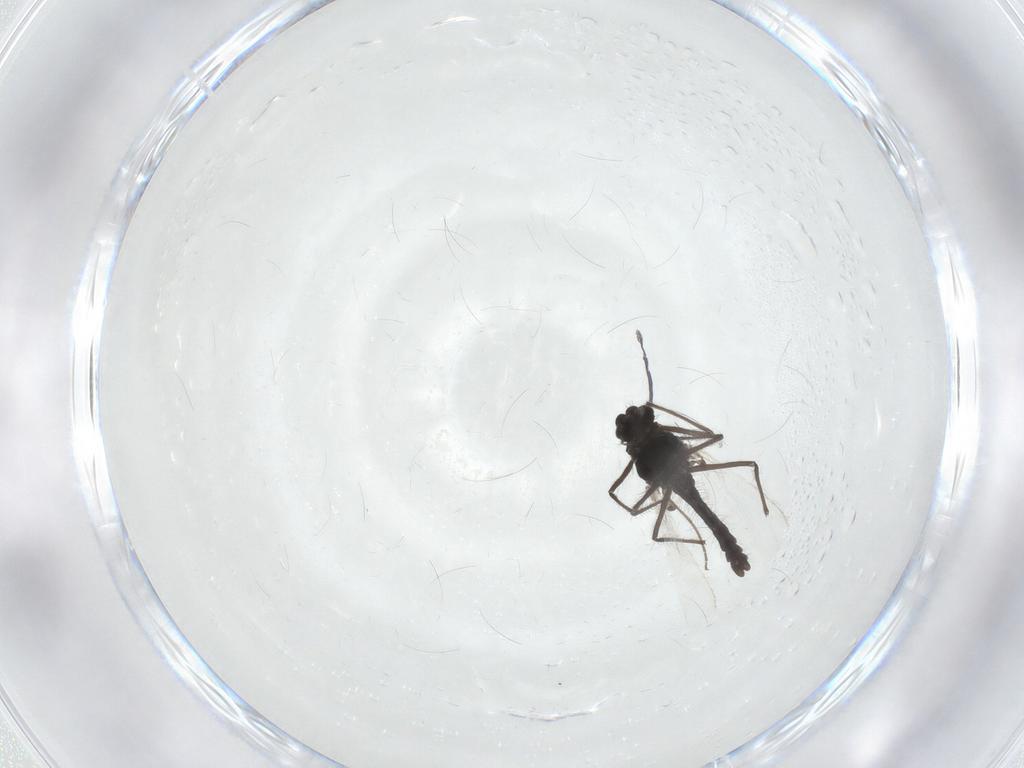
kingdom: Animalia
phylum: Arthropoda
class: Insecta
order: Diptera
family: Chironomidae
